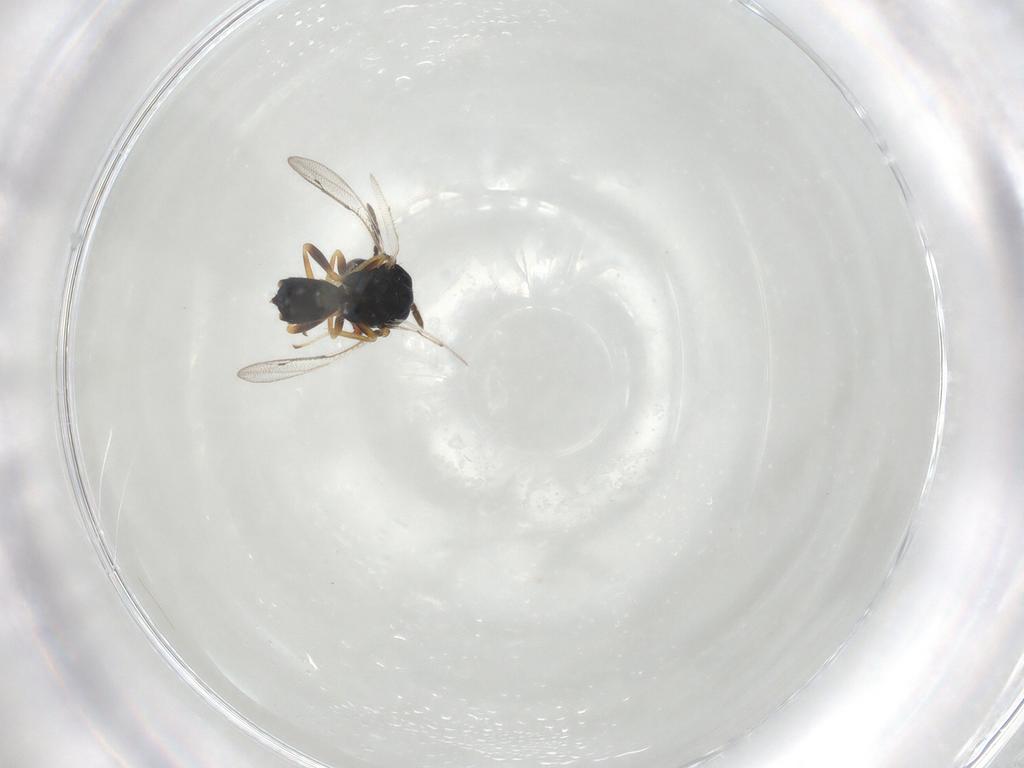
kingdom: Animalia
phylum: Arthropoda
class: Insecta
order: Hymenoptera
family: Pteromalidae
